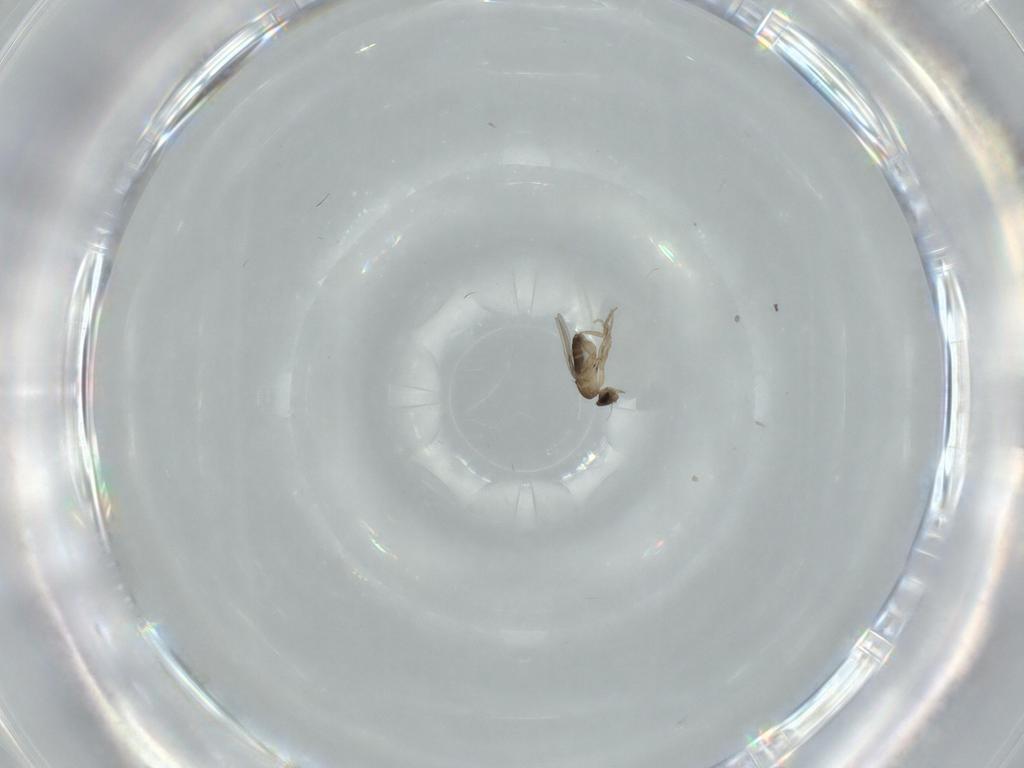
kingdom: Animalia
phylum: Arthropoda
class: Insecta
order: Diptera
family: Phoridae
